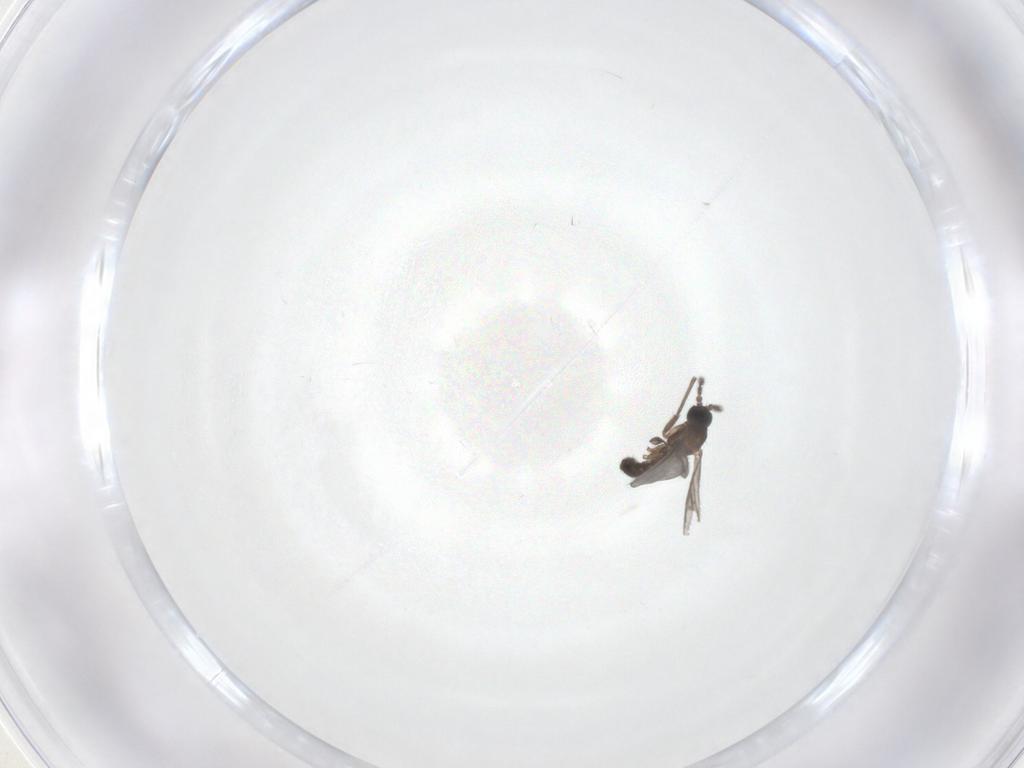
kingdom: Animalia
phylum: Arthropoda
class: Insecta
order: Diptera
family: Sciaridae
